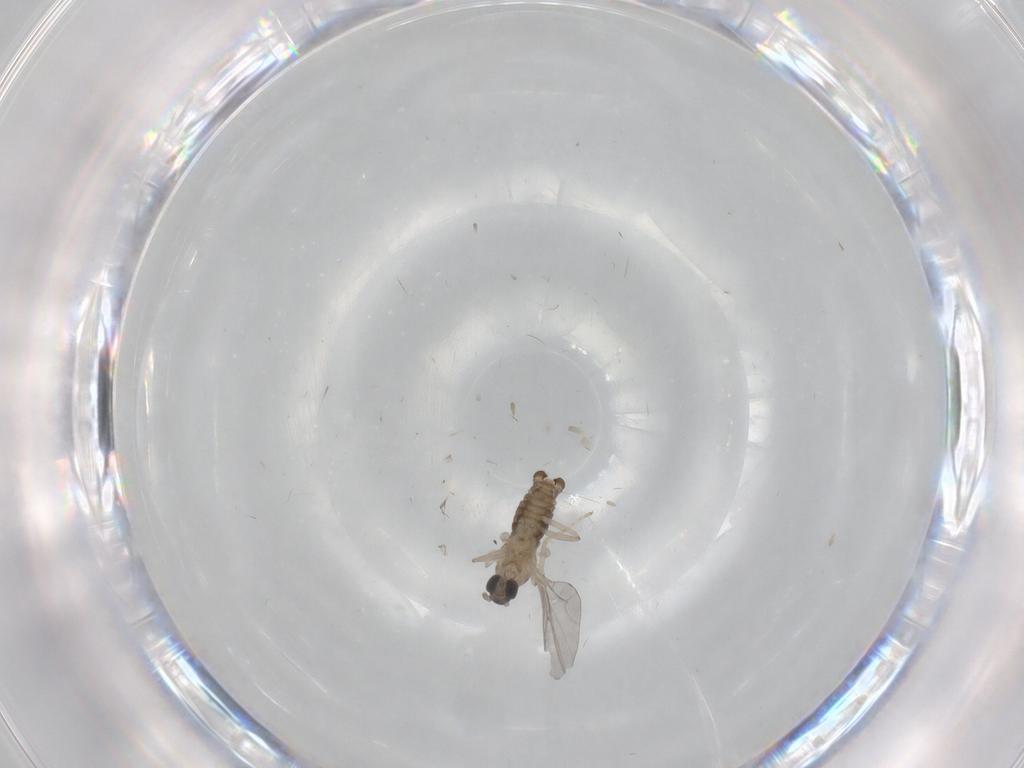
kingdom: Animalia
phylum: Arthropoda
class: Insecta
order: Diptera
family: Cecidomyiidae
